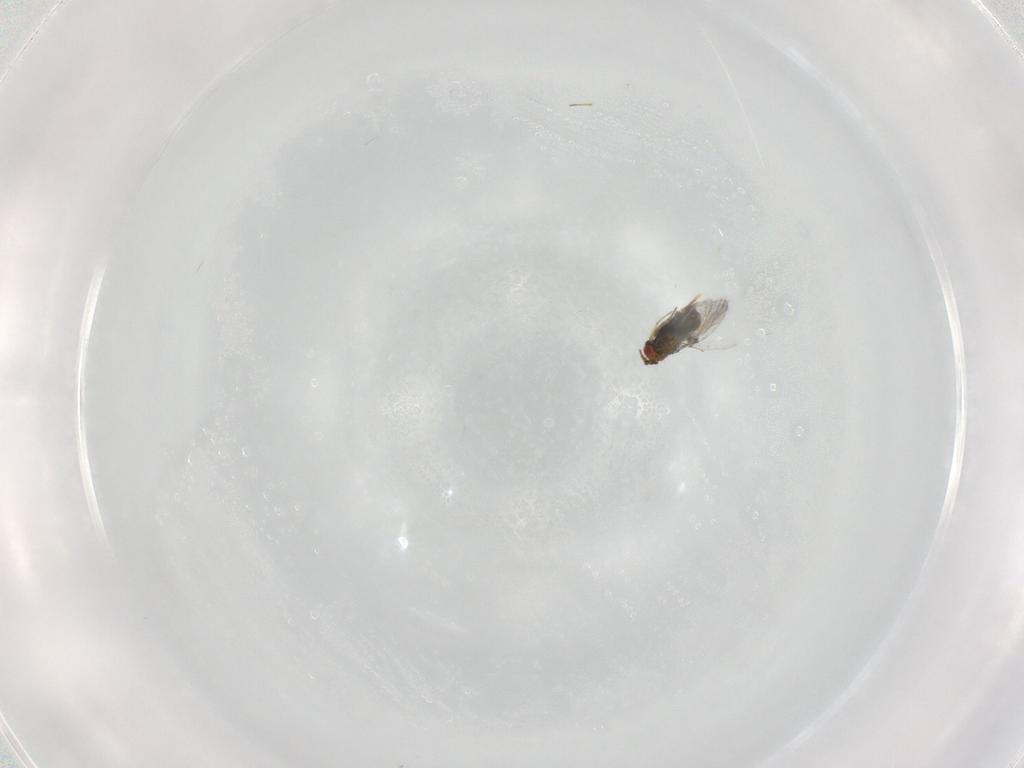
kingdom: Animalia
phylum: Arthropoda
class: Insecta
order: Hymenoptera
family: Trichogrammatidae
